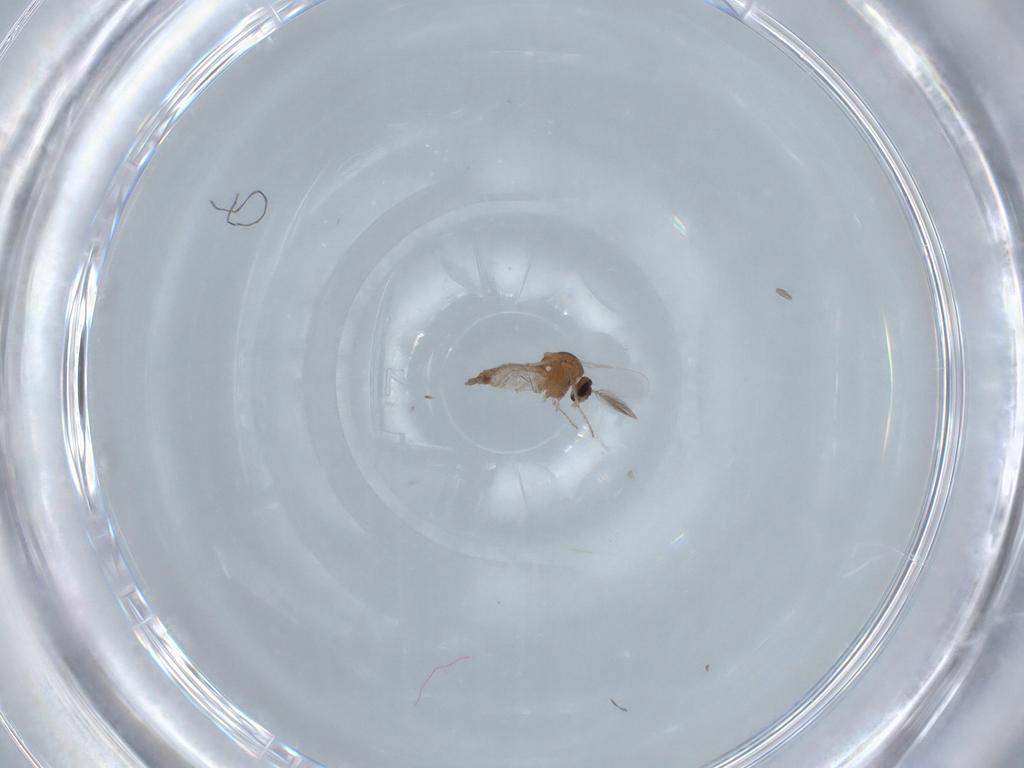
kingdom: Animalia
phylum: Arthropoda
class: Insecta
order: Diptera
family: Ceratopogonidae
